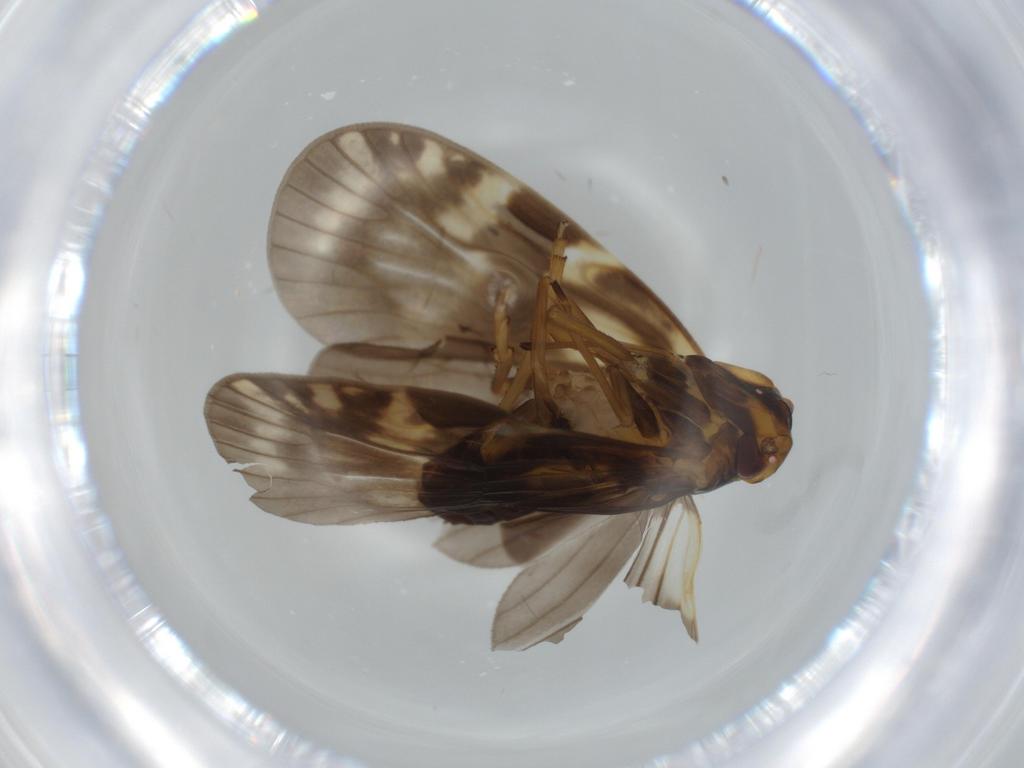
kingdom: Animalia
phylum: Arthropoda
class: Insecta
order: Hemiptera
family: Cixiidae
